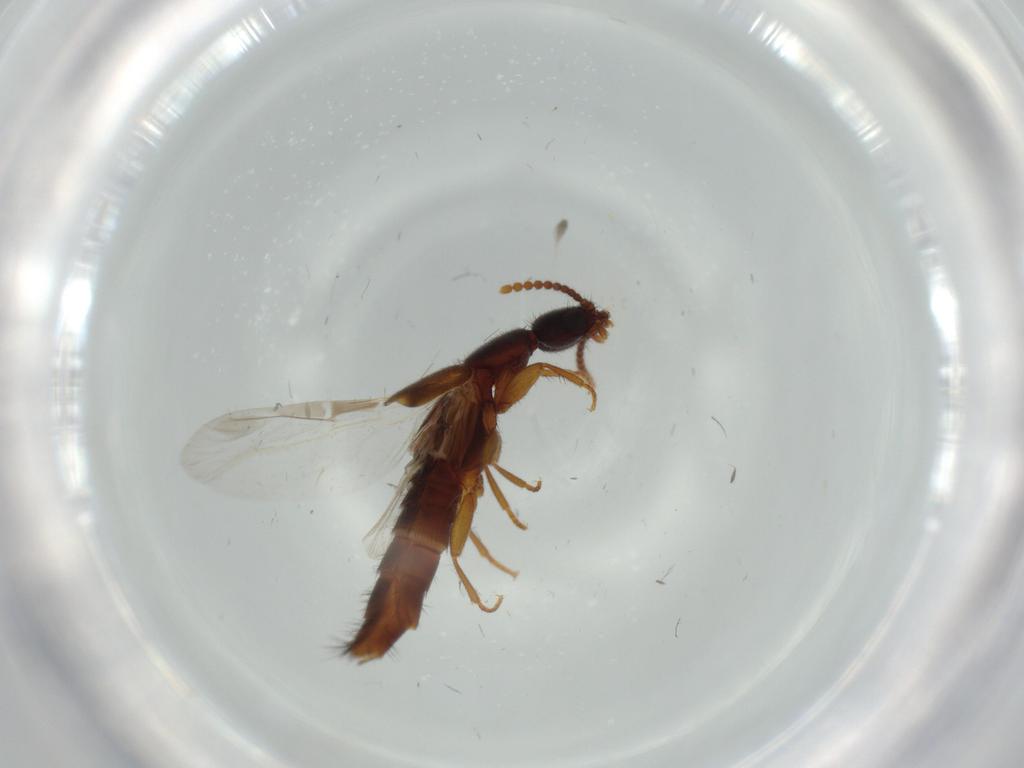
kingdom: Animalia
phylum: Arthropoda
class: Insecta
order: Coleoptera
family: Staphylinidae
